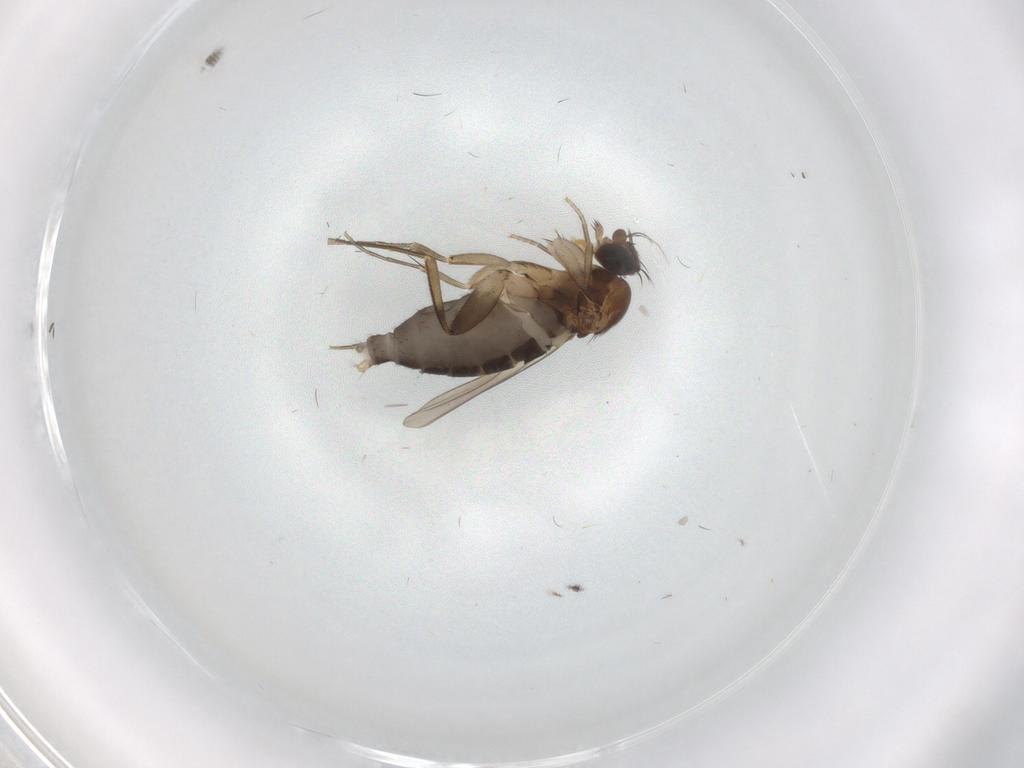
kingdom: Animalia
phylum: Arthropoda
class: Insecta
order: Diptera
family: Phoridae
